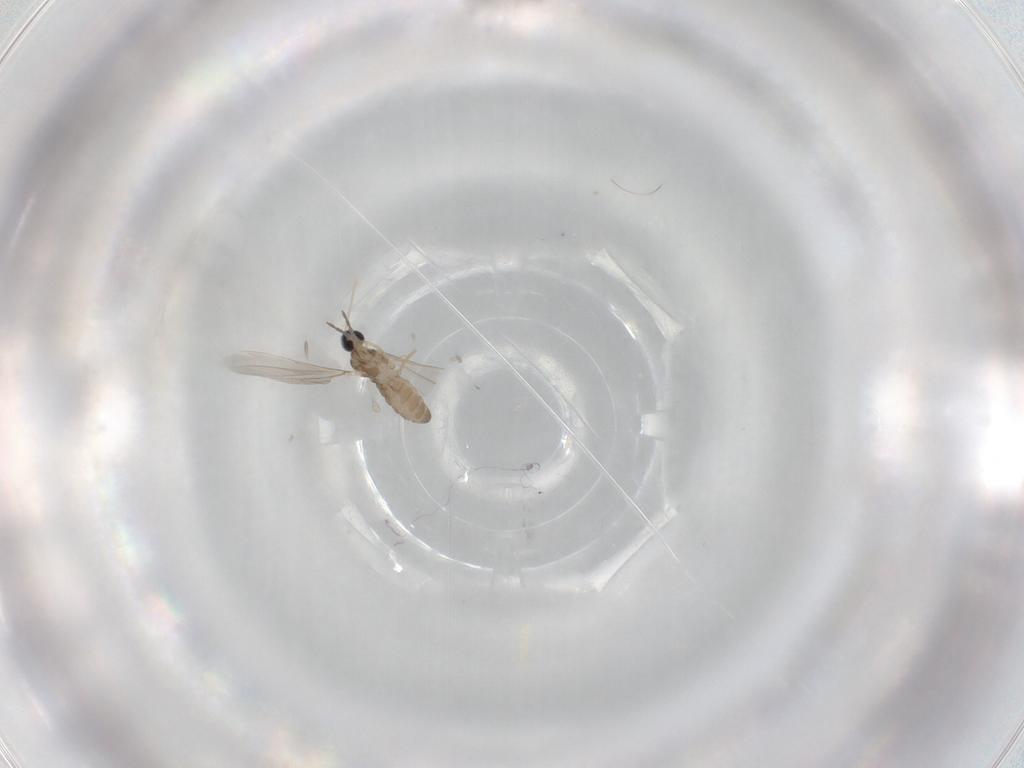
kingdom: Animalia
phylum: Arthropoda
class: Insecta
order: Diptera
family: Cecidomyiidae
